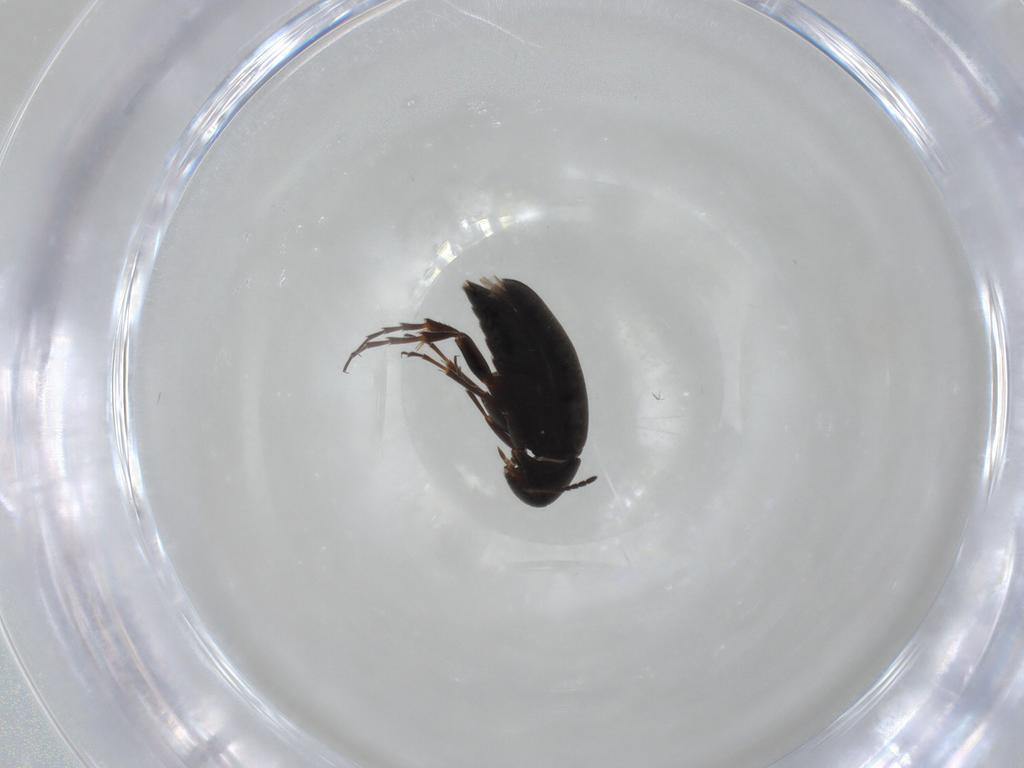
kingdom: Animalia
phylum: Arthropoda
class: Insecta
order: Coleoptera
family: Scraptiidae
